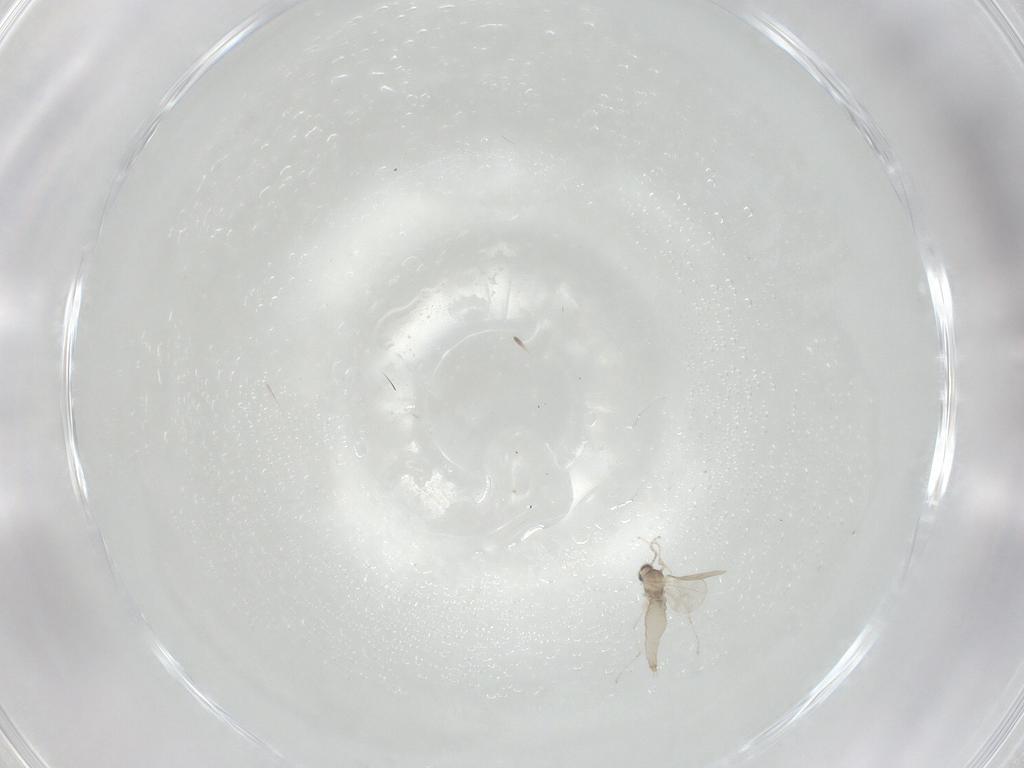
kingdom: Animalia
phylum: Arthropoda
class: Insecta
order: Diptera
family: Cecidomyiidae
